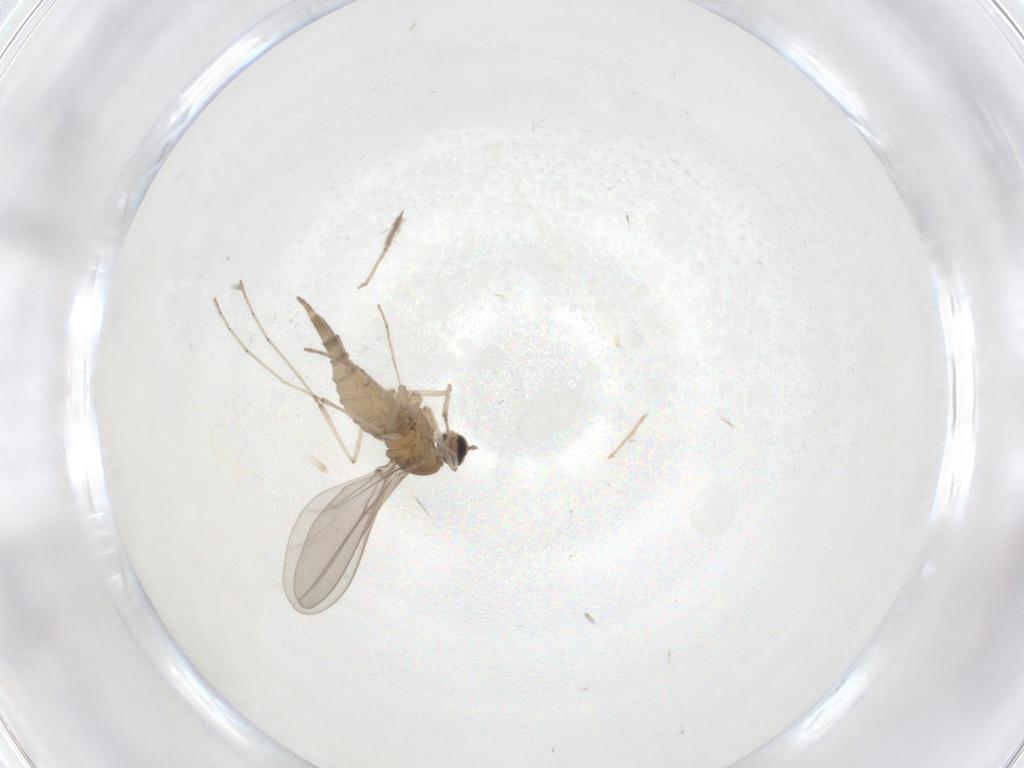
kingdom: Animalia
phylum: Arthropoda
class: Insecta
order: Diptera
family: Cecidomyiidae
